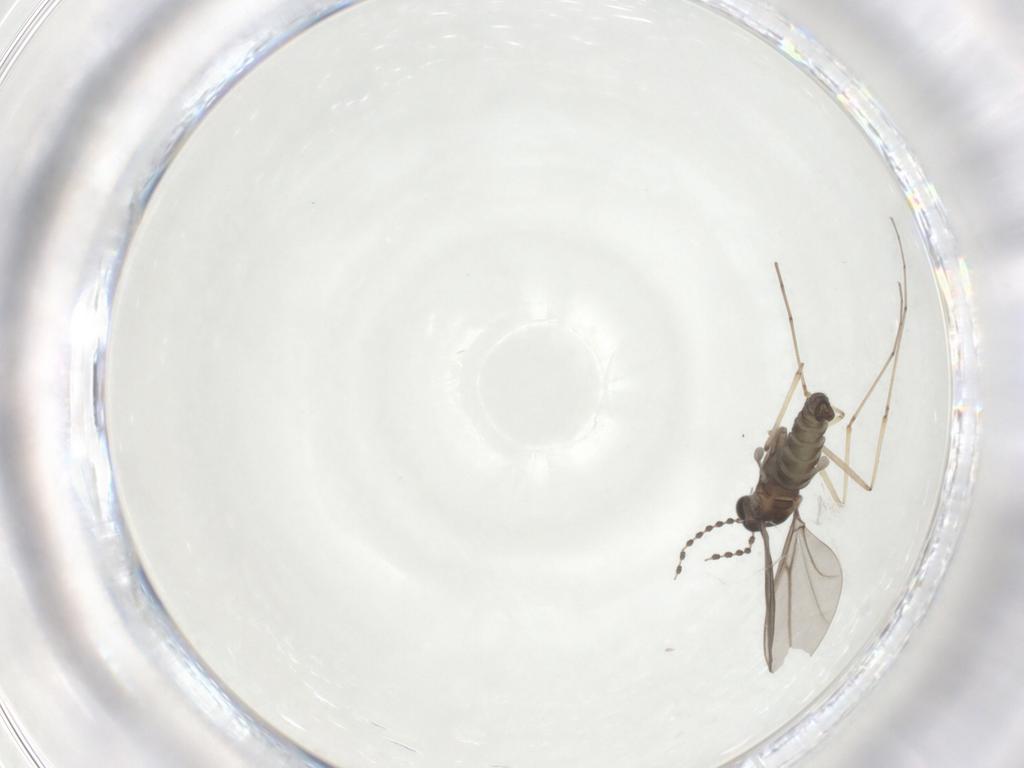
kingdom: Animalia
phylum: Arthropoda
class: Insecta
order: Diptera
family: Cecidomyiidae
